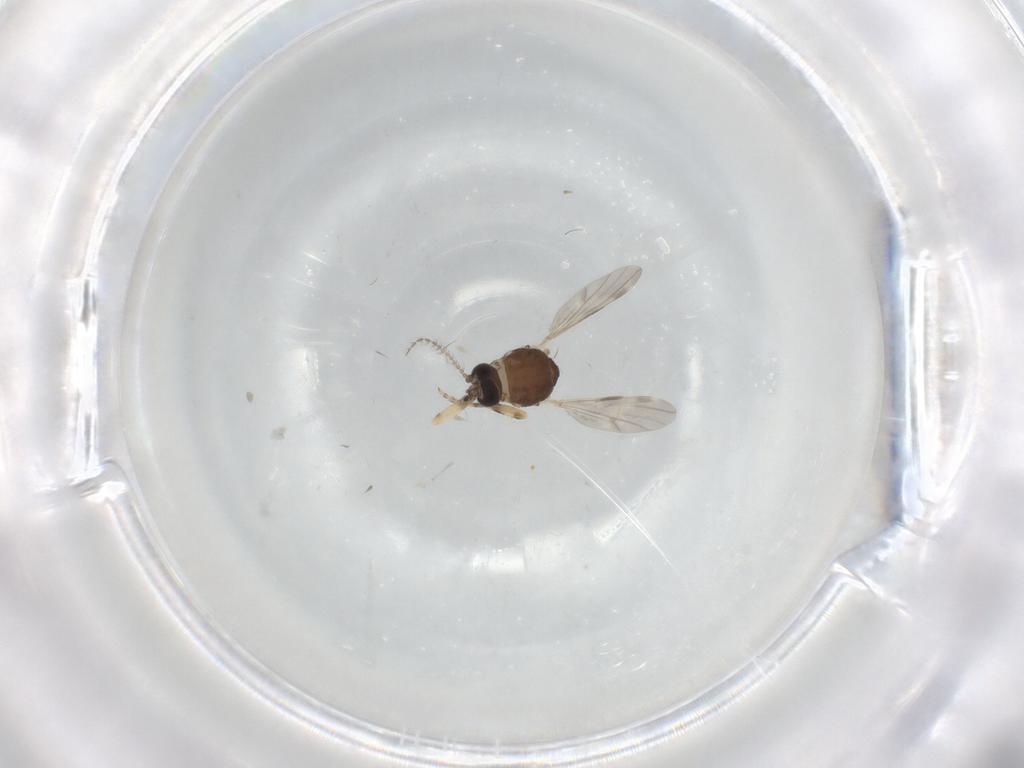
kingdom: Animalia
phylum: Arthropoda
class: Insecta
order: Diptera
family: Ceratopogonidae
